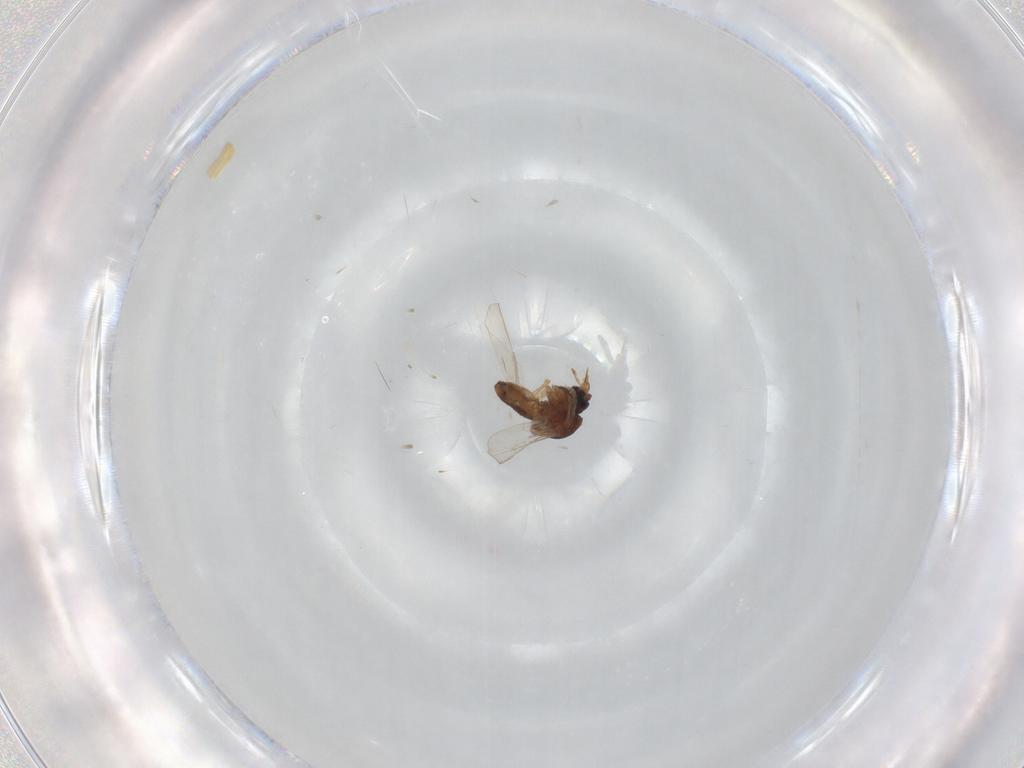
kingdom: Animalia
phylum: Arthropoda
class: Insecta
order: Diptera
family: Ceratopogonidae
